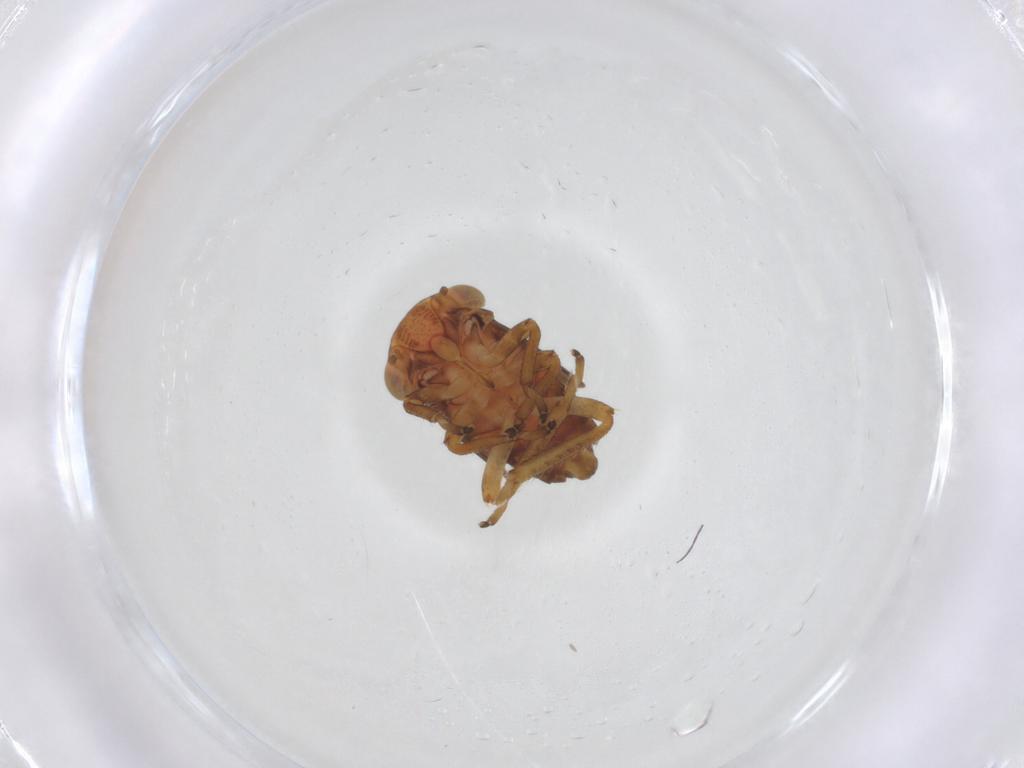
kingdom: Animalia
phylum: Arthropoda
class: Insecta
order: Hemiptera
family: Cicadellidae
